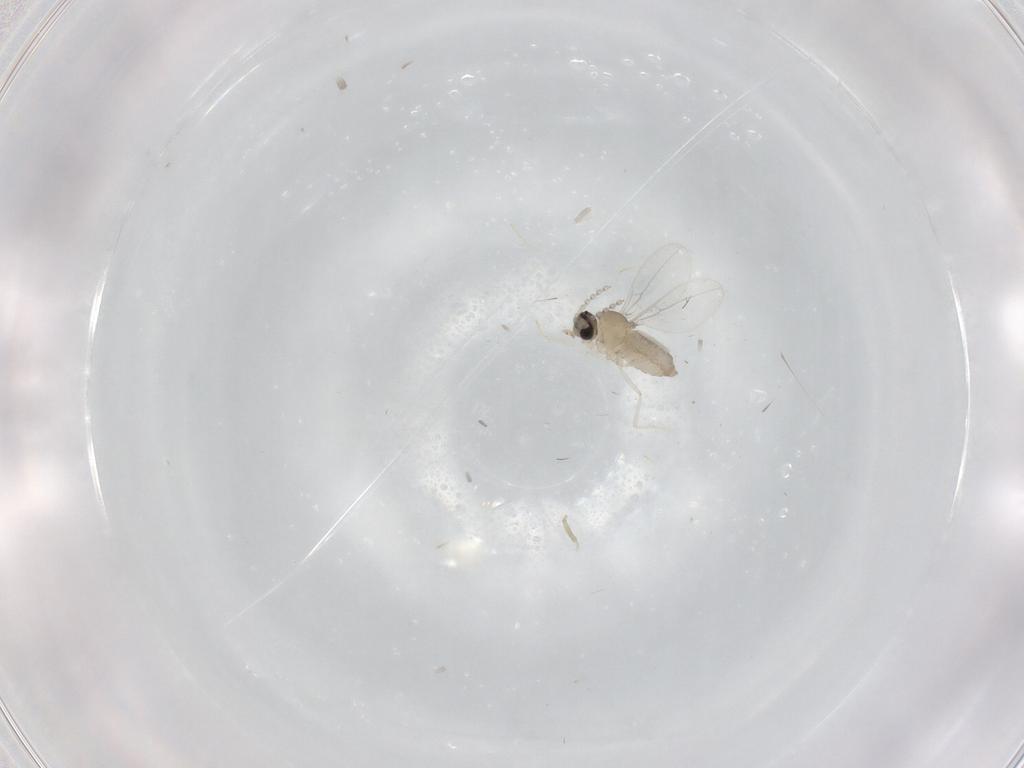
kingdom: Animalia
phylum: Arthropoda
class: Insecta
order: Diptera
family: Cecidomyiidae
